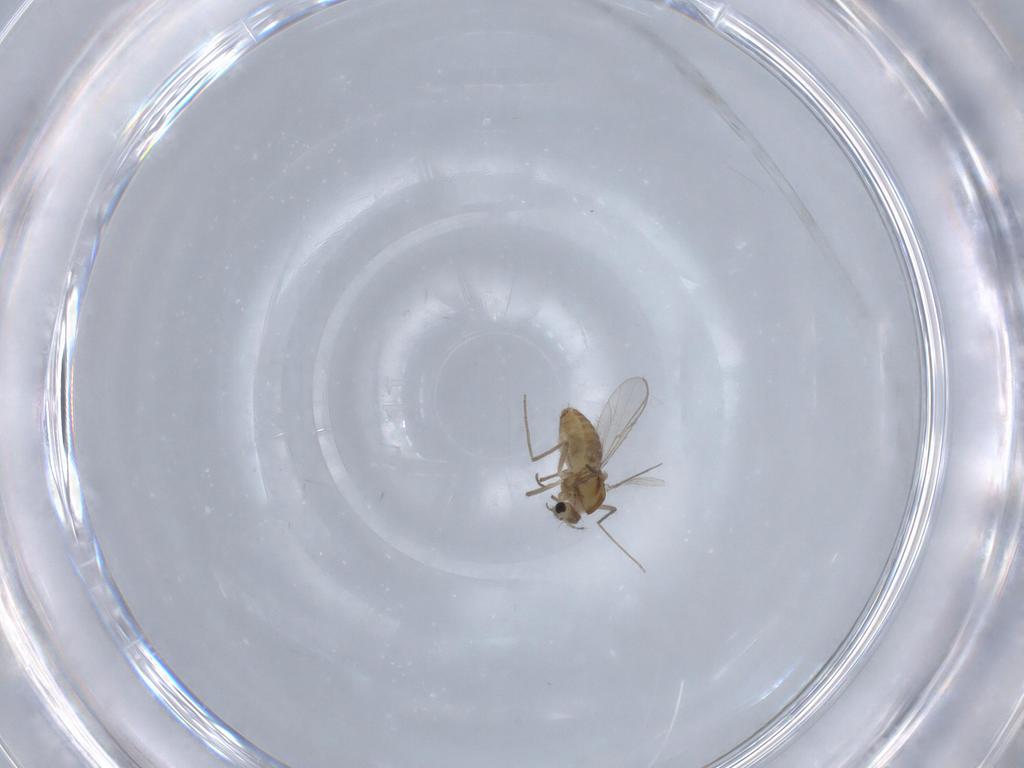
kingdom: Animalia
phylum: Arthropoda
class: Insecta
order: Diptera
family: Chironomidae
